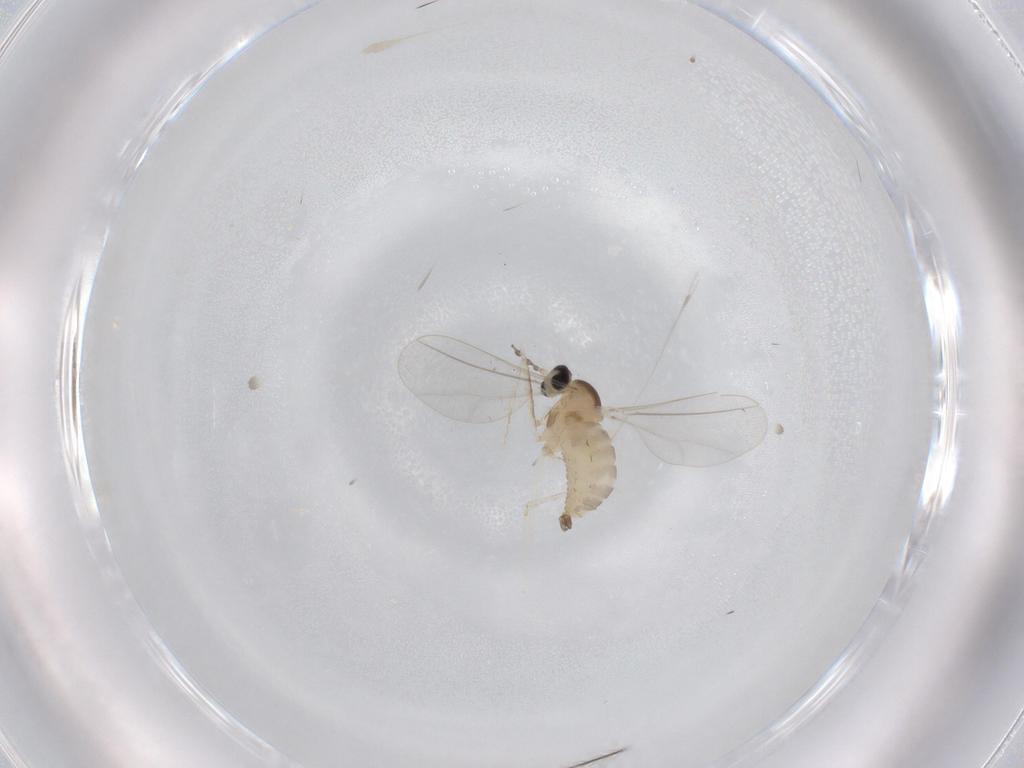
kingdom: Animalia
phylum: Arthropoda
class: Insecta
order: Diptera
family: Cecidomyiidae
